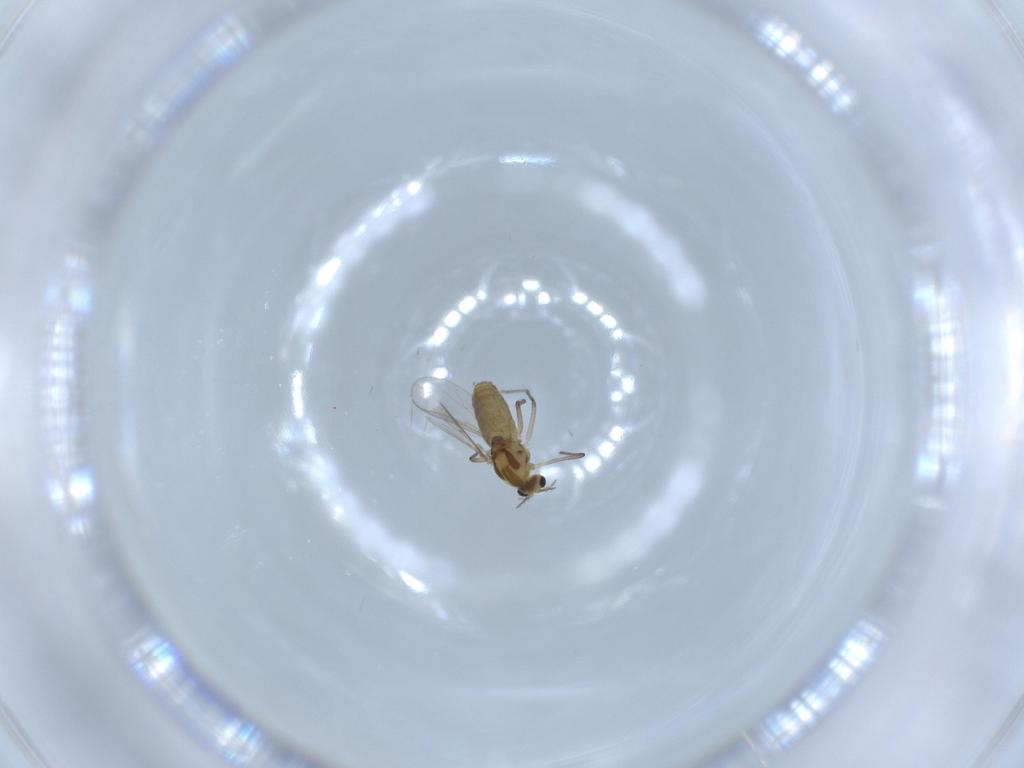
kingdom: Animalia
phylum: Arthropoda
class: Insecta
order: Diptera
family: Chironomidae
